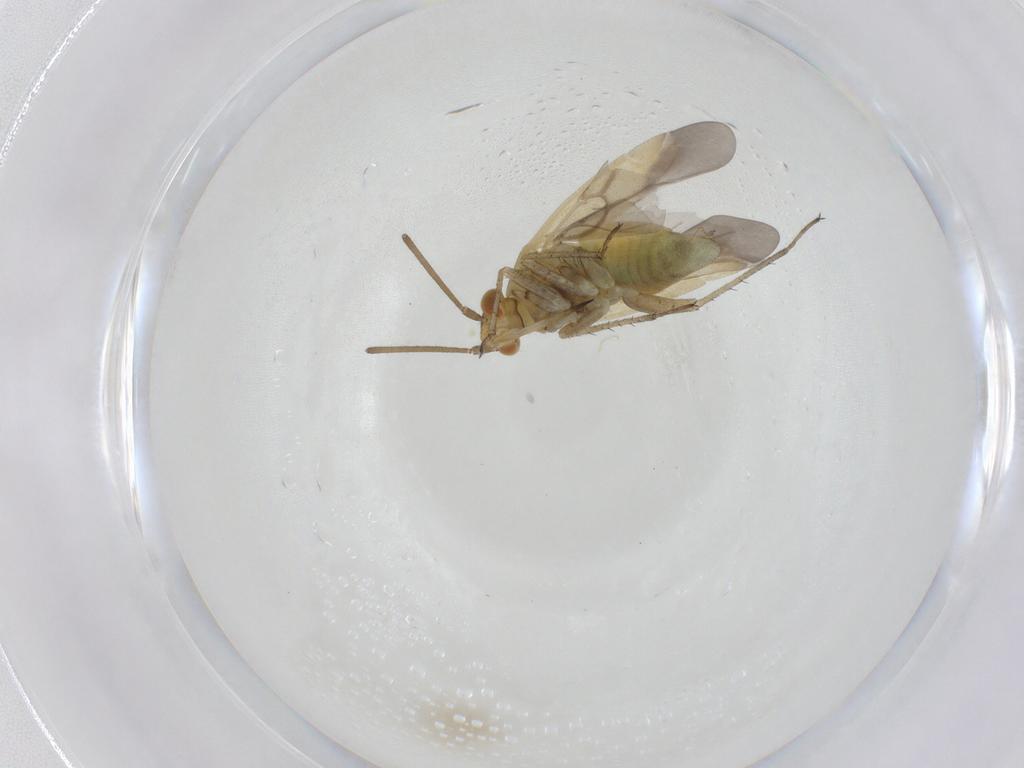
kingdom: Animalia
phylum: Arthropoda
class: Insecta
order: Hemiptera
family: Miridae
